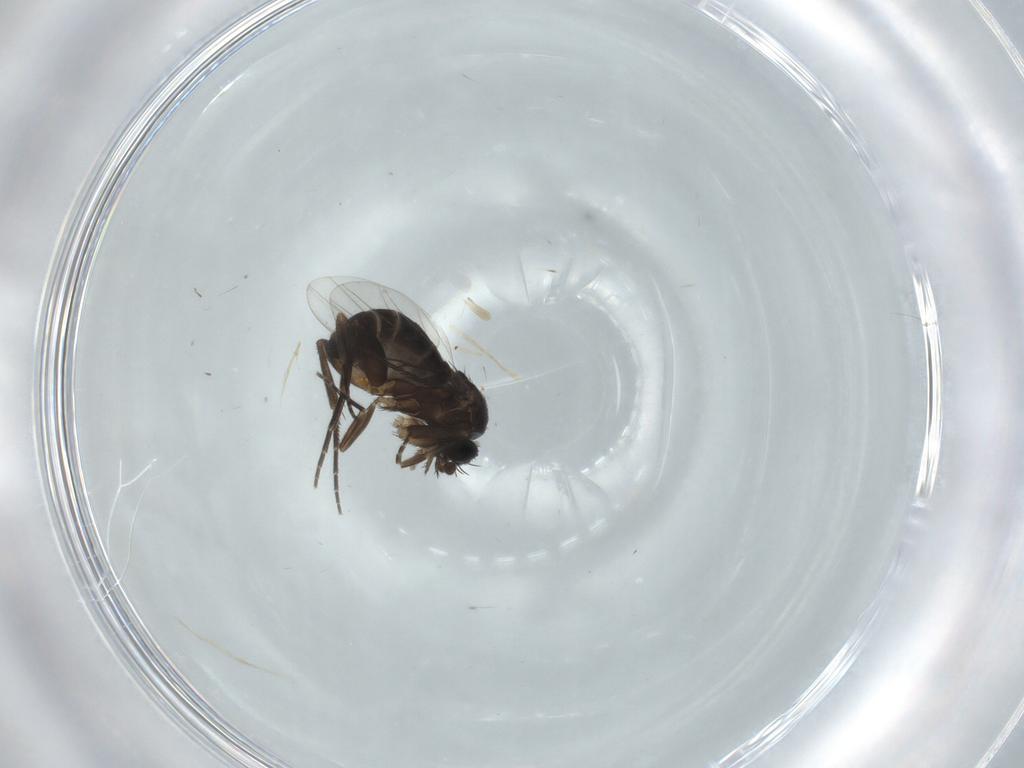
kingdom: Animalia
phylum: Arthropoda
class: Insecta
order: Diptera
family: Phoridae
